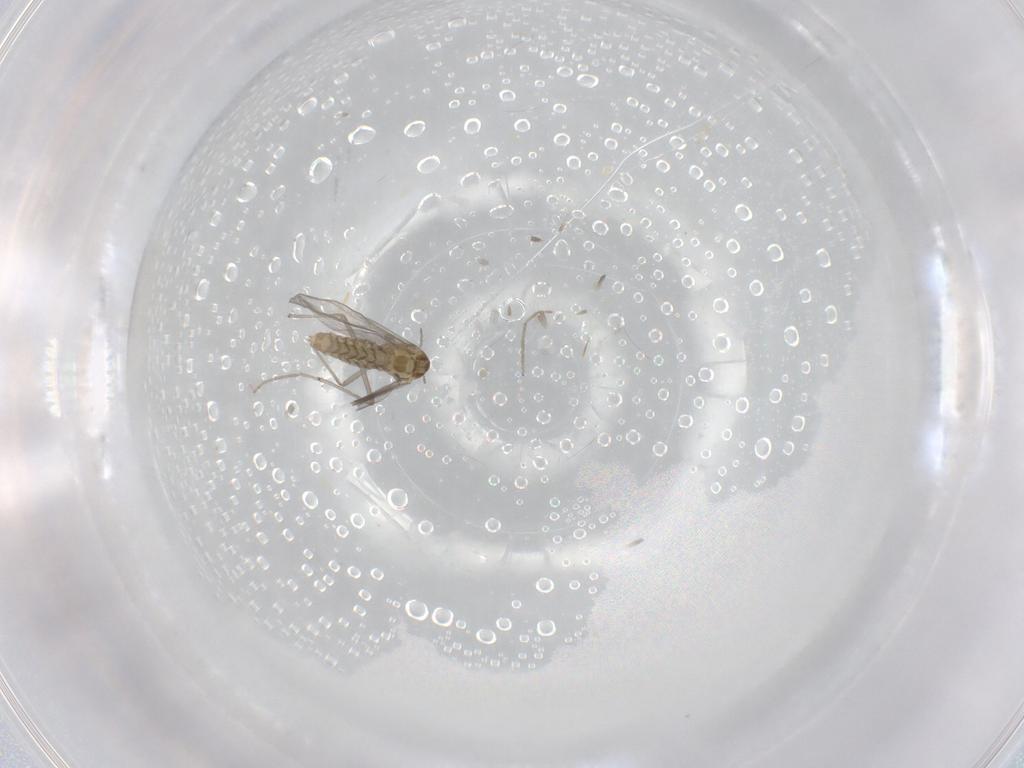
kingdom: Animalia
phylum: Arthropoda
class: Insecta
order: Diptera
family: Chironomidae
